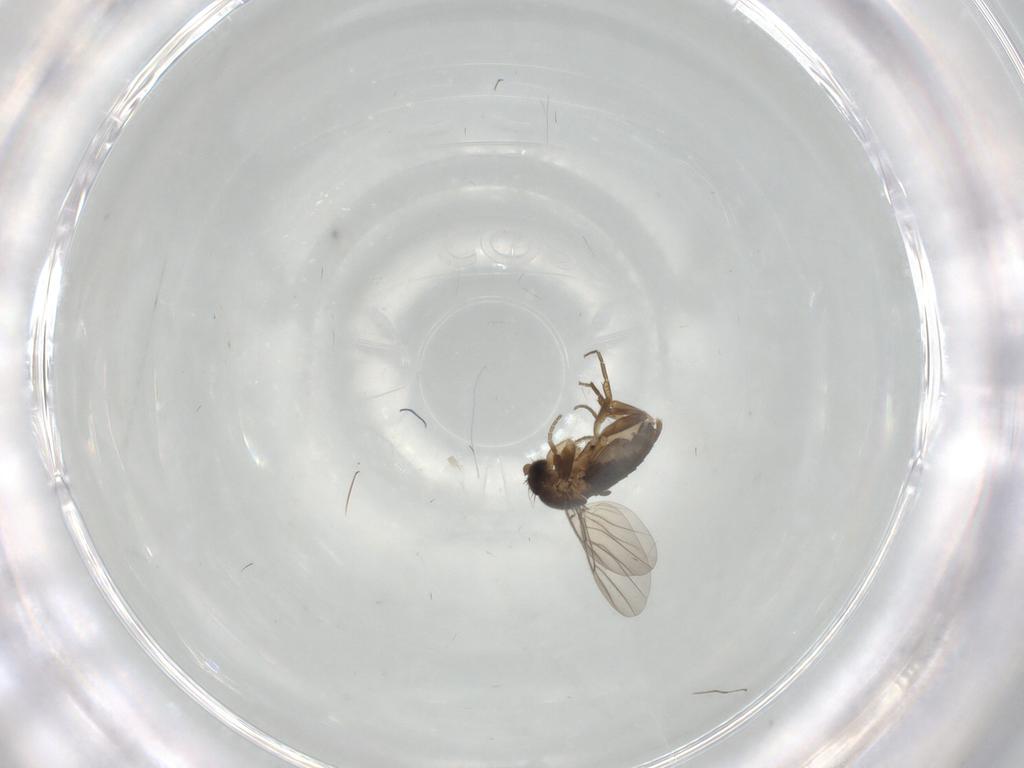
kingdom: Animalia
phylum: Arthropoda
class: Insecta
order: Diptera
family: Phoridae
